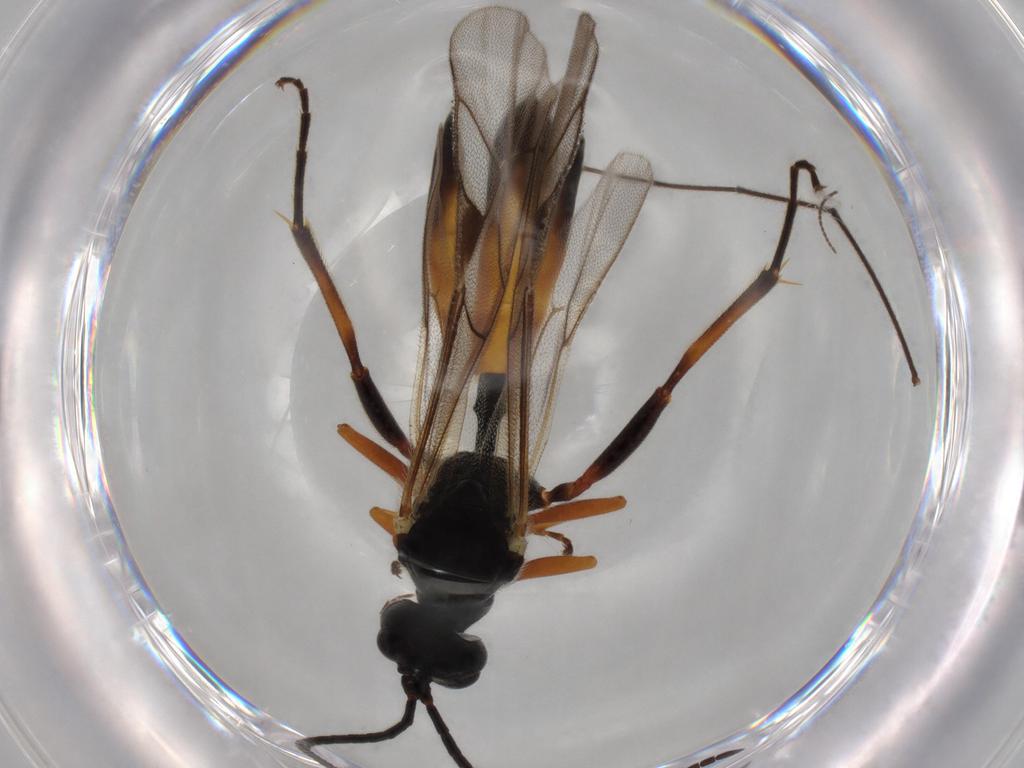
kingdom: Animalia
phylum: Arthropoda
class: Insecta
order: Hymenoptera
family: Scelionidae
